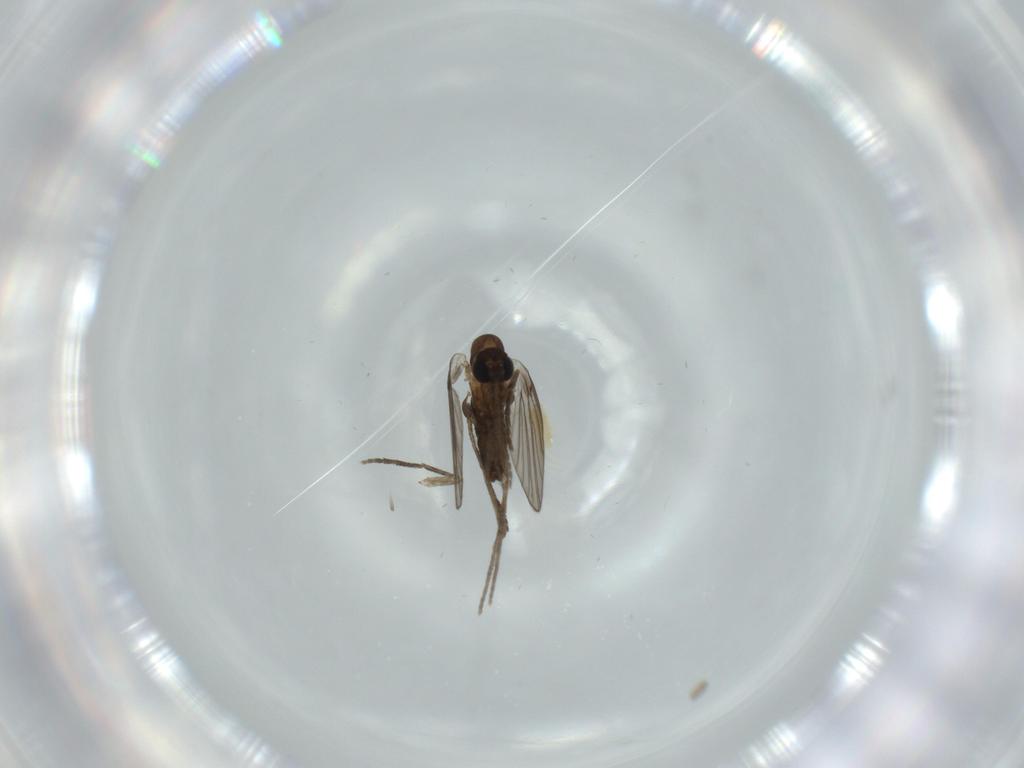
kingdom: Animalia
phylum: Arthropoda
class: Insecta
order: Diptera
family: Psychodidae
